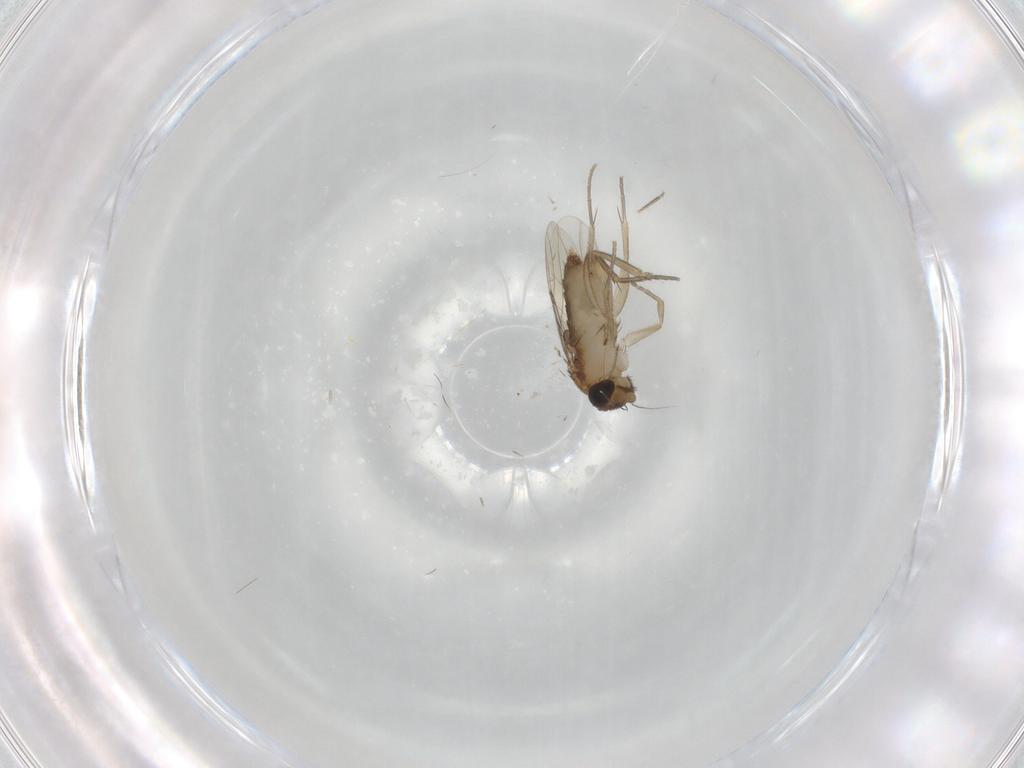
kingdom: Animalia
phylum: Arthropoda
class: Insecta
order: Diptera
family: Phoridae
